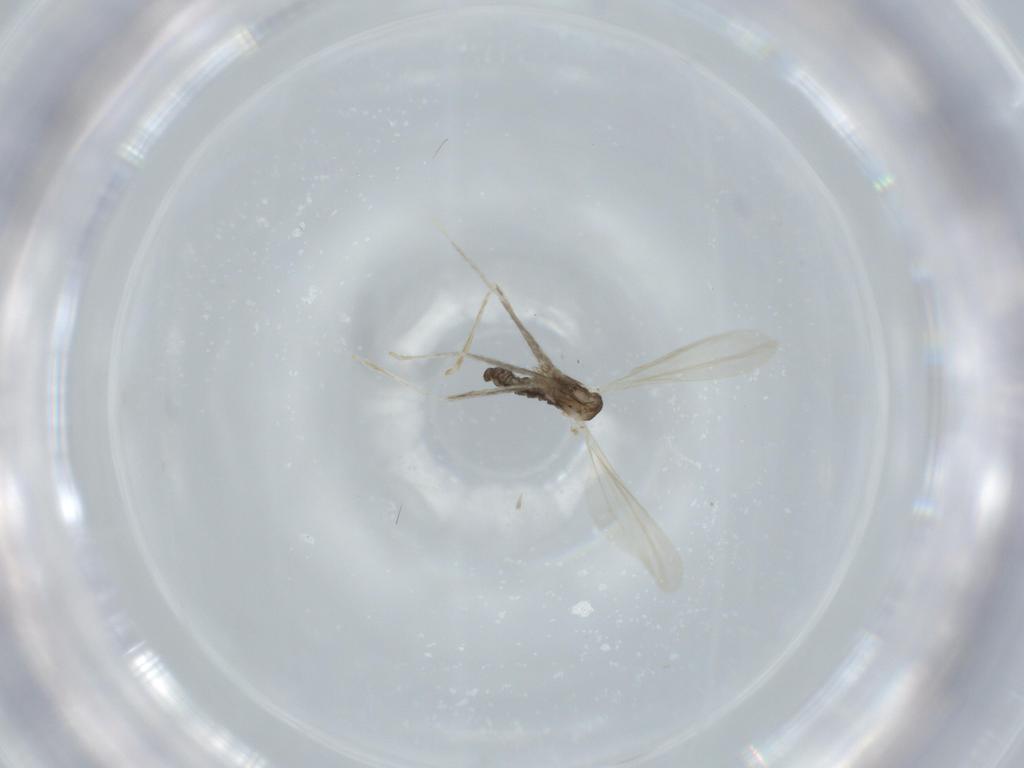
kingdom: Animalia
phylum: Arthropoda
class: Insecta
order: Diptera
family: Cecidomyiidae
